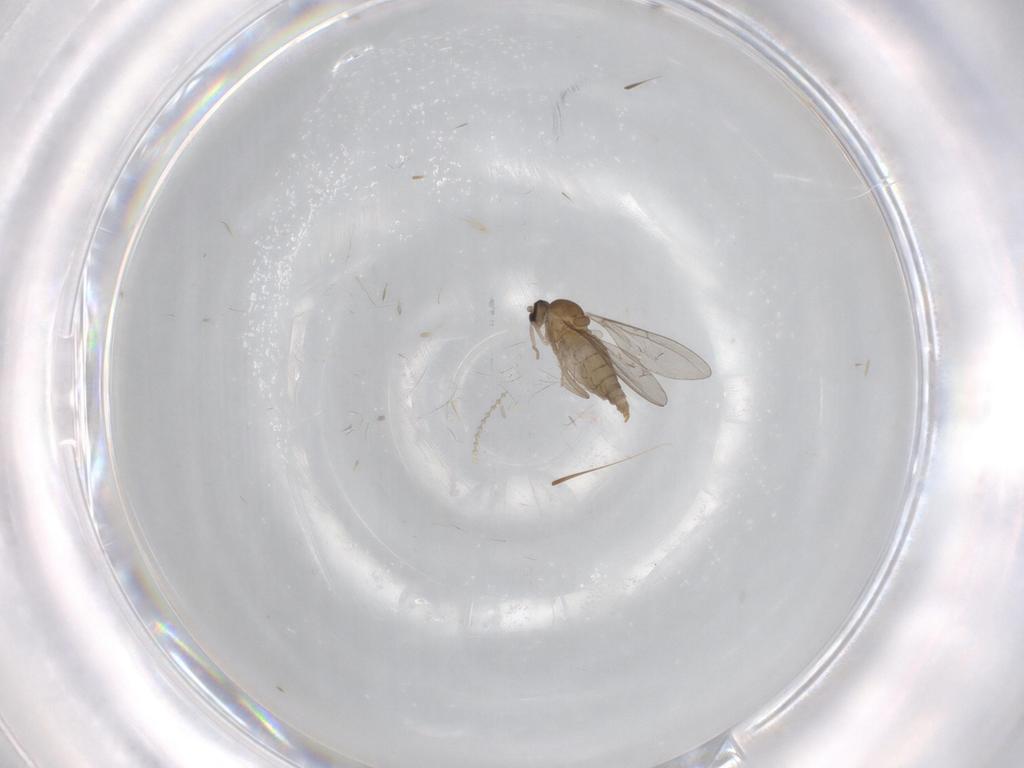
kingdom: Animalia
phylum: Arthropoda
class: Insecta
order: Diptera
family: Cecidomyiidae
